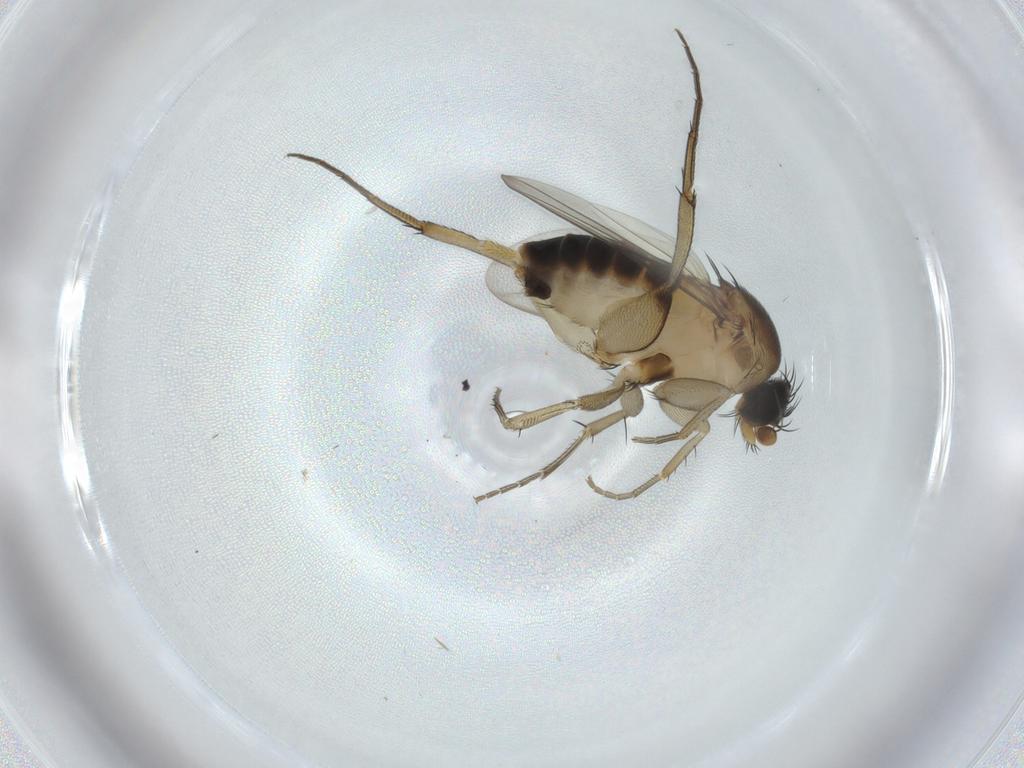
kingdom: Animalia
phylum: Arthropoda
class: Insecta
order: Diptera
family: Phoridae
